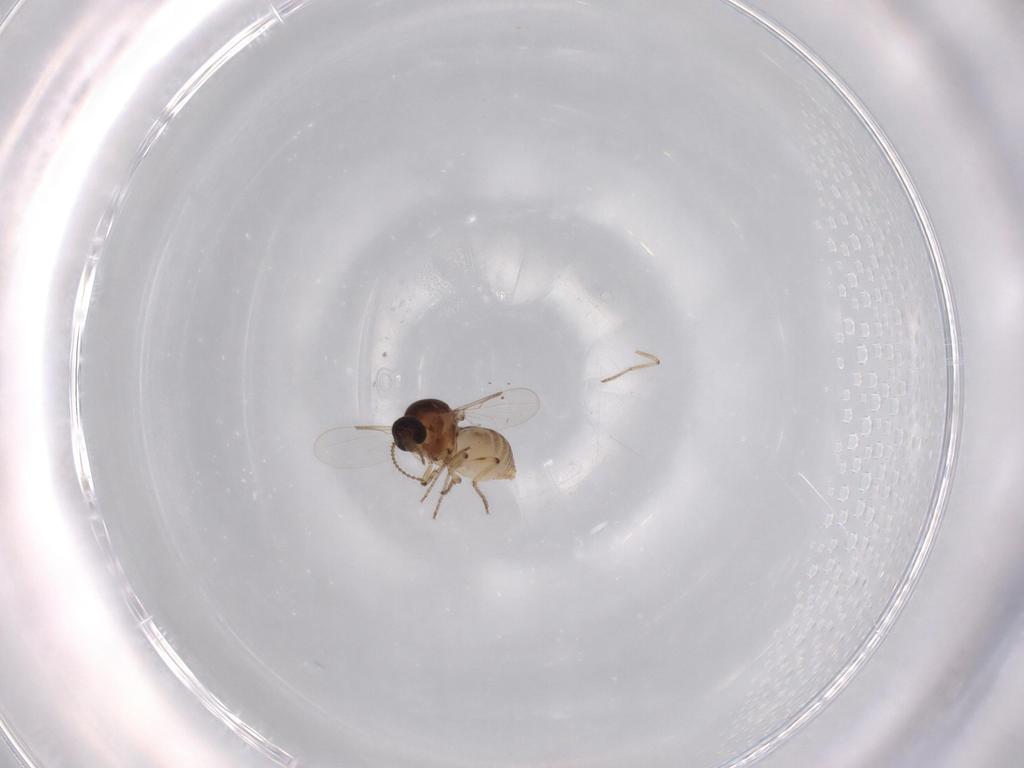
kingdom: Animalia
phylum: Arthropoda
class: Insecta
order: Diptera
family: Ceratopogonidae
